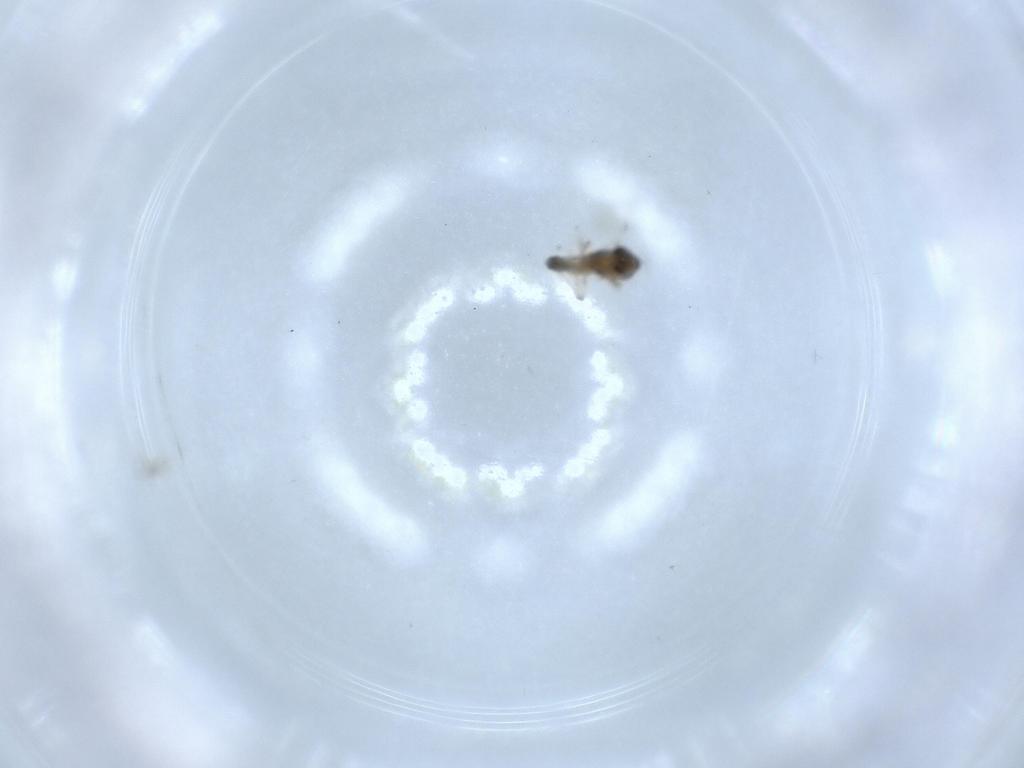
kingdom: Animalia
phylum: Arthropoda
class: Insecta
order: Diptera
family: Chironomidae
